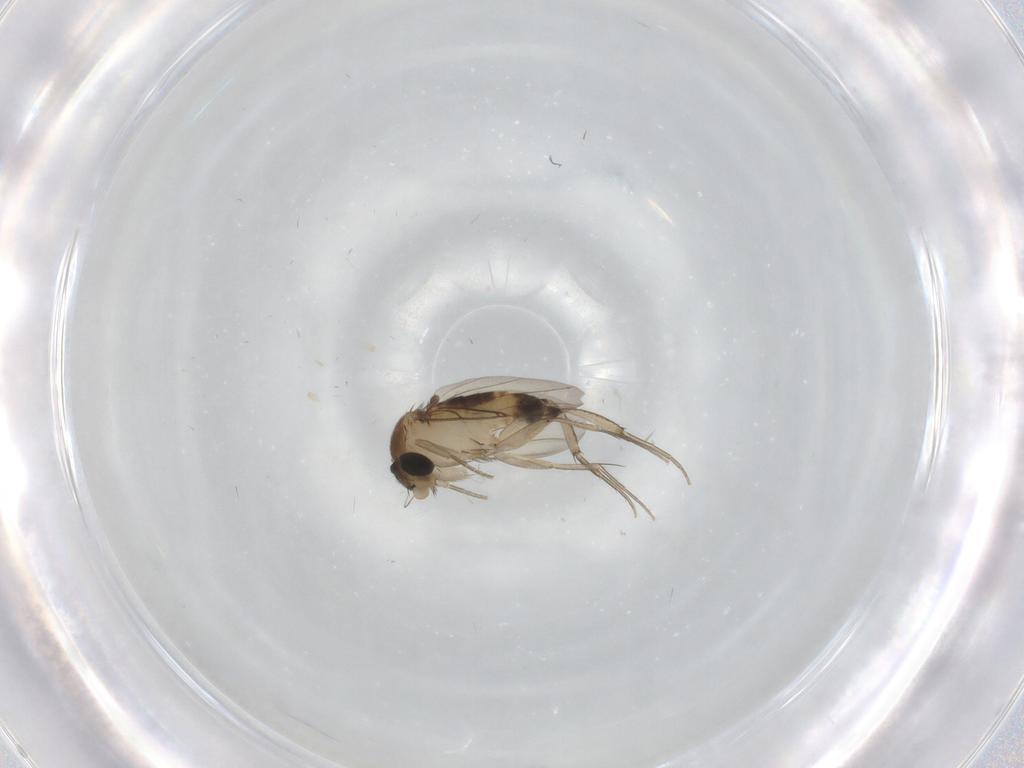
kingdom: Animalia
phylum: Arthropoda
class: Insecta
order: Diptera
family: Phoridae
